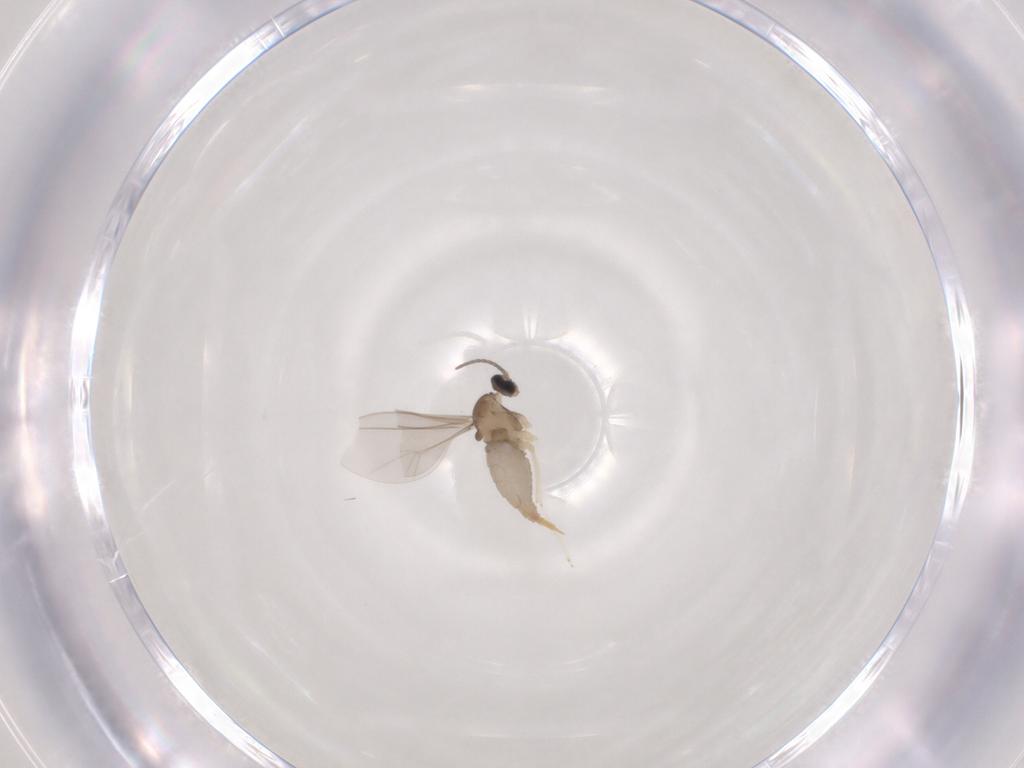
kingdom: Animalia
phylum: Arthropoda
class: Insecta
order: Diptera
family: Cecidomyiidae
